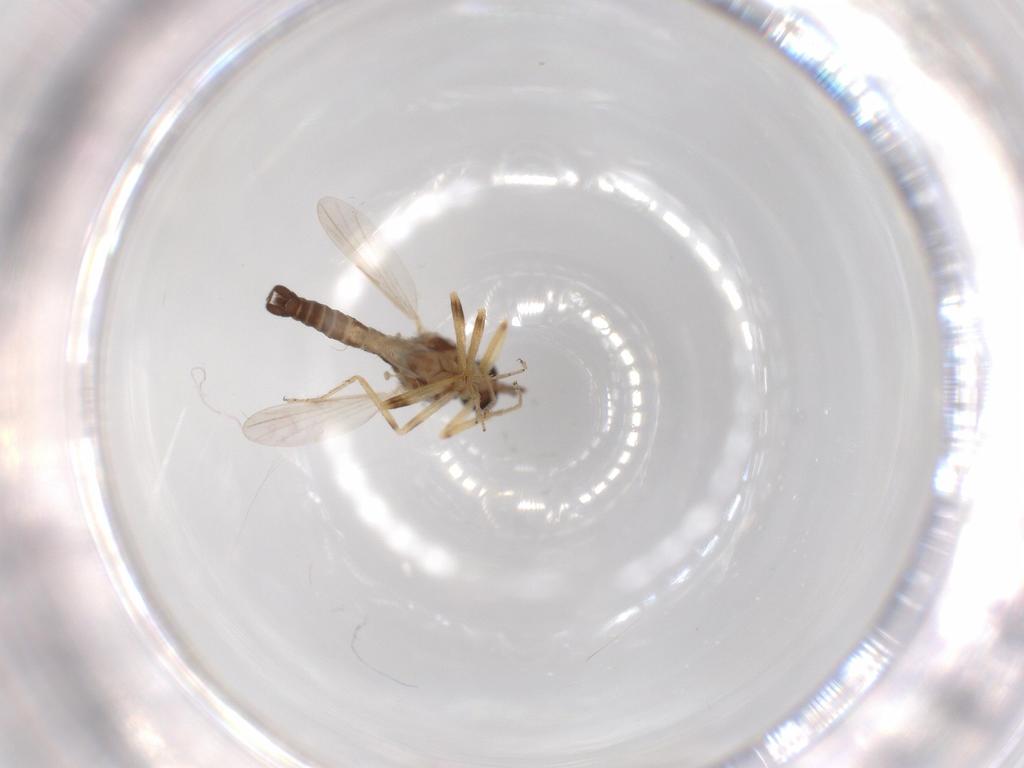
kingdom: Animalia
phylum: Arthropoda
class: Insecta
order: Diptera
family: Ceratopogonidae
